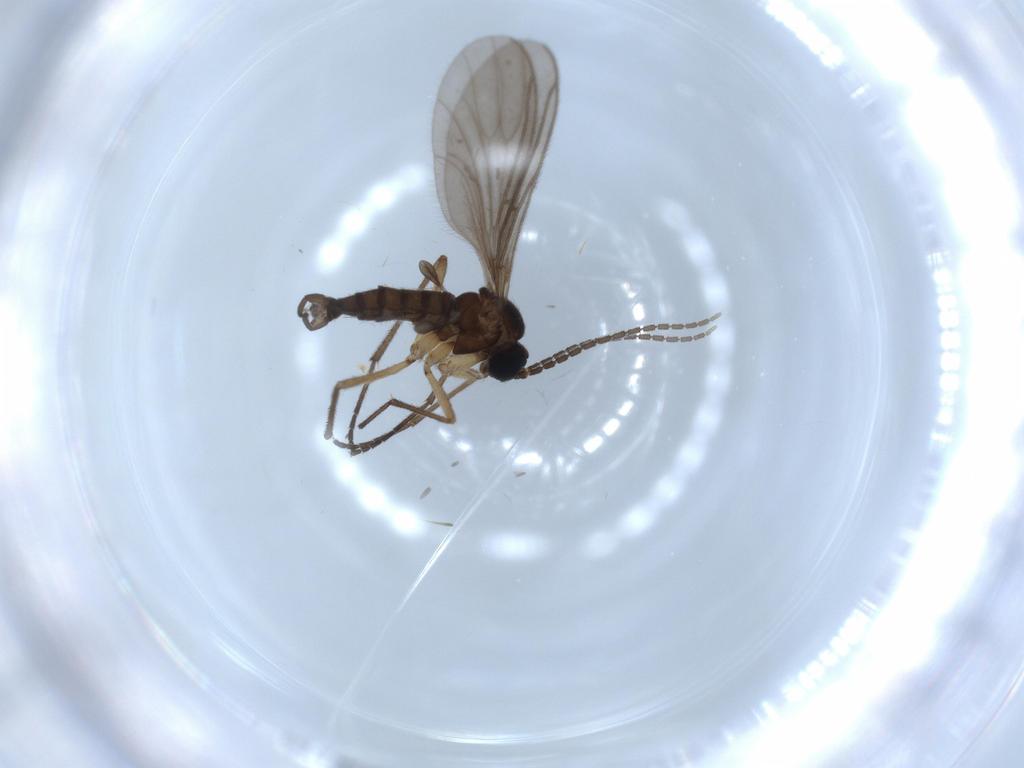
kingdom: Animalia
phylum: Arthropoda
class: Insecta
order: Diptera
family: Sciaridae
